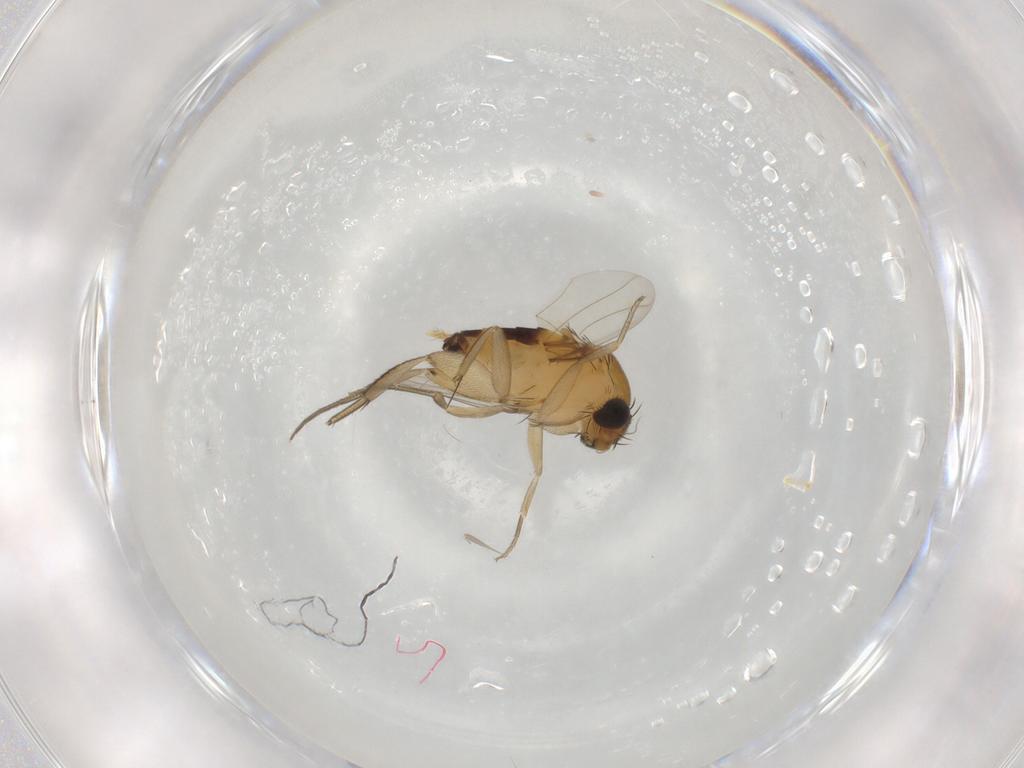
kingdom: Animalia
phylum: Arthropoda
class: Insecta
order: Diptera
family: Phoridae
